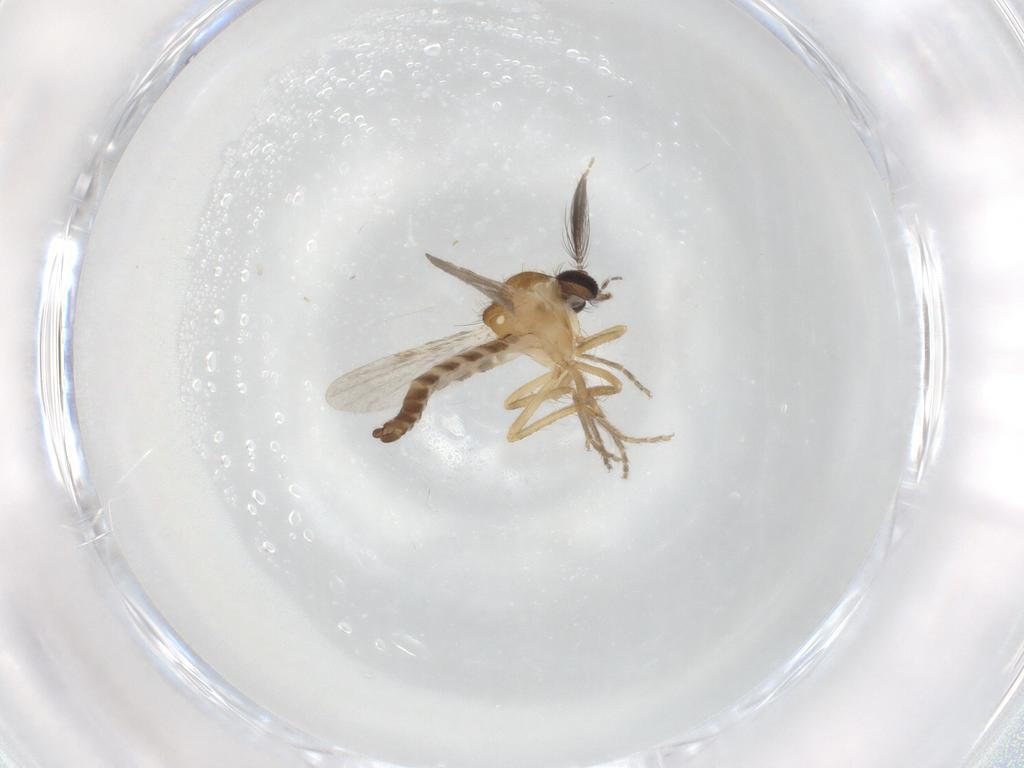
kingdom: Animalia
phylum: Arthropoda
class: Insecta
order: Diptera
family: Ceratopogonidae
